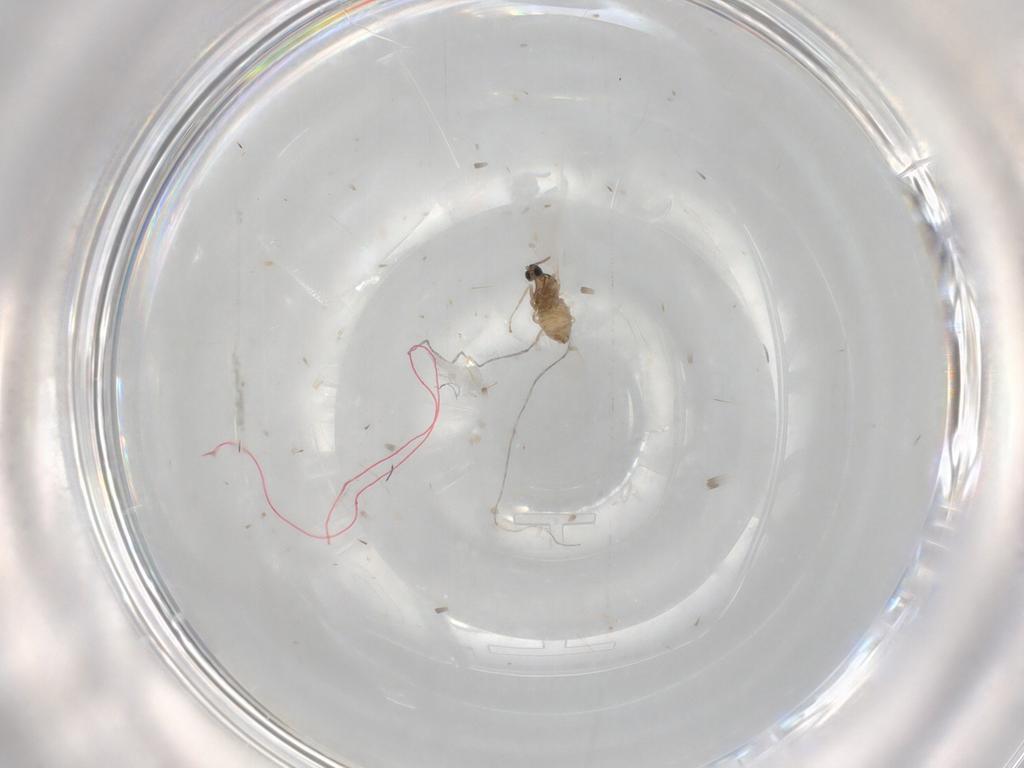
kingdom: Animalia
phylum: Arthropoda
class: Insecta
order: Diptera
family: Cecidomyiidae
